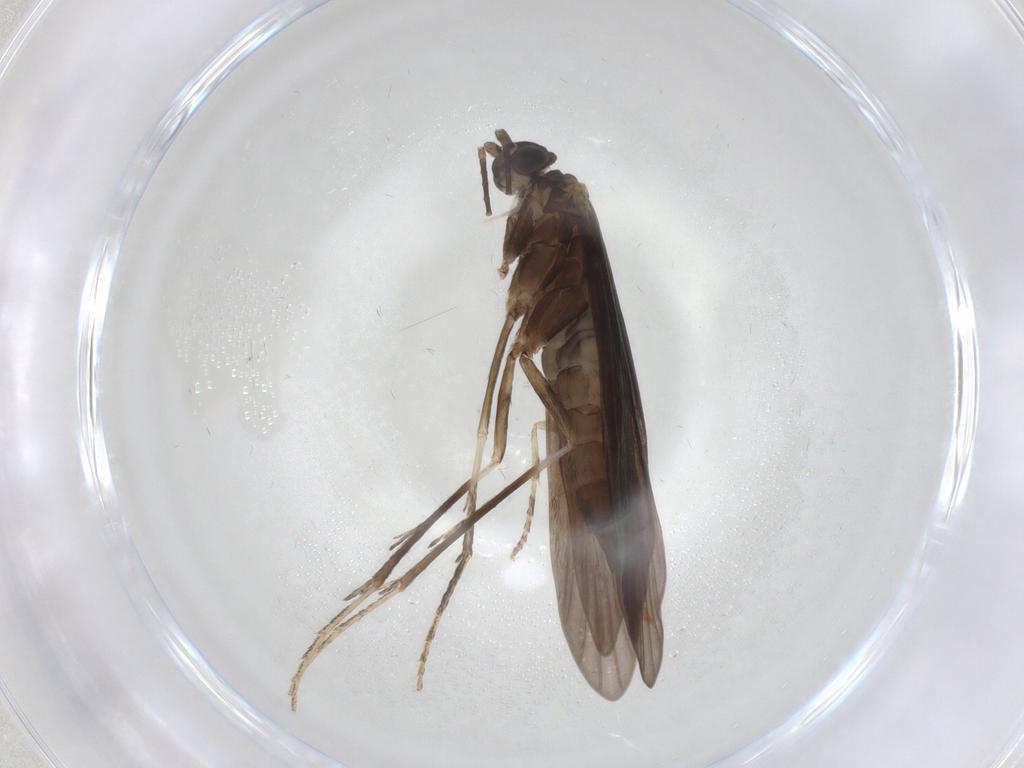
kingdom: Animalia
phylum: Arthropoda
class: Insecta
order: Trichoptera
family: Xiphocentronidae
